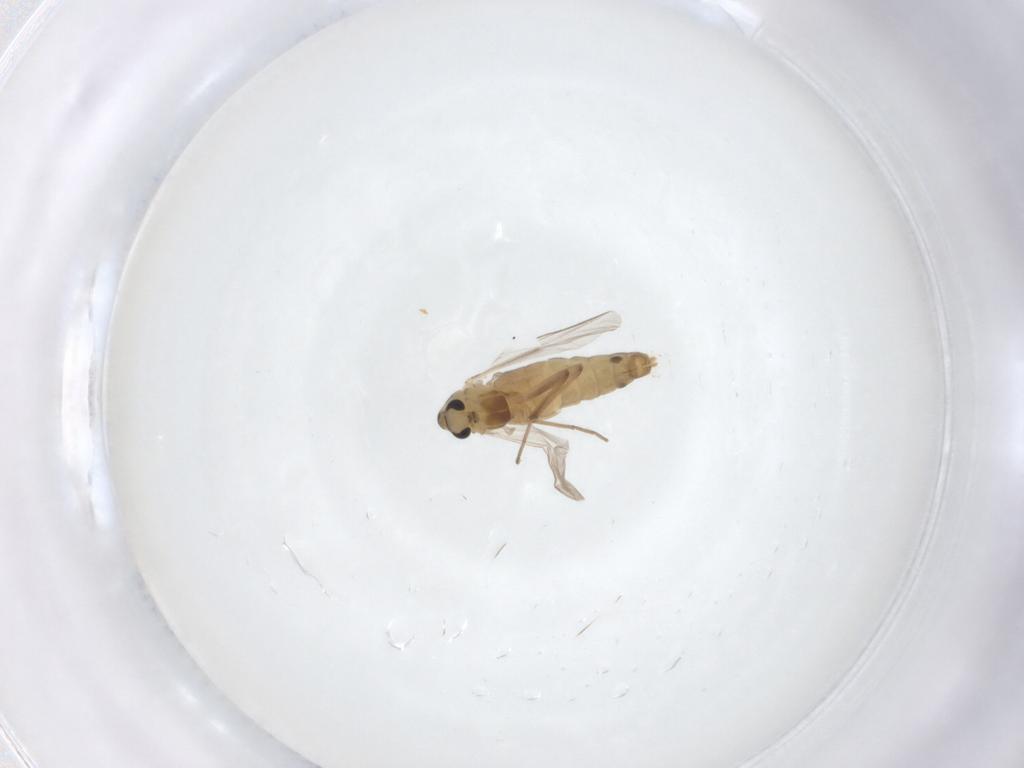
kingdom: Animalia
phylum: Arthropoda
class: Insecta
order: Diptera
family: Chironomidae
